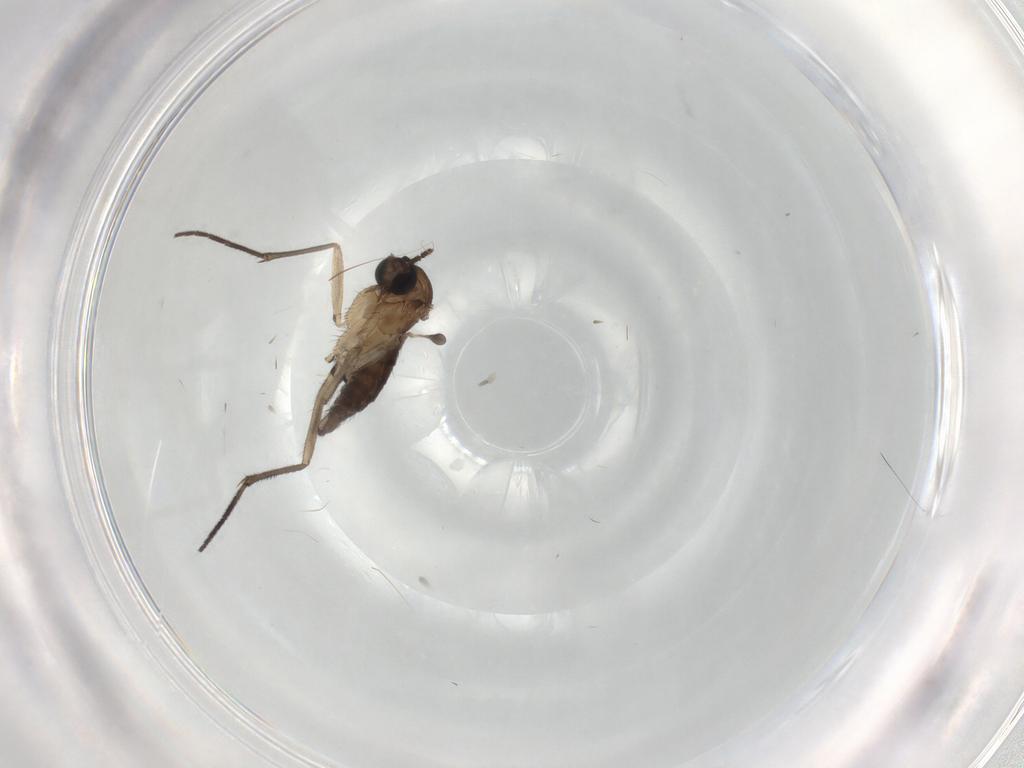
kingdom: Animalia
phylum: Arthropoda
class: Insecta
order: Diptera
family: Sciaridae
